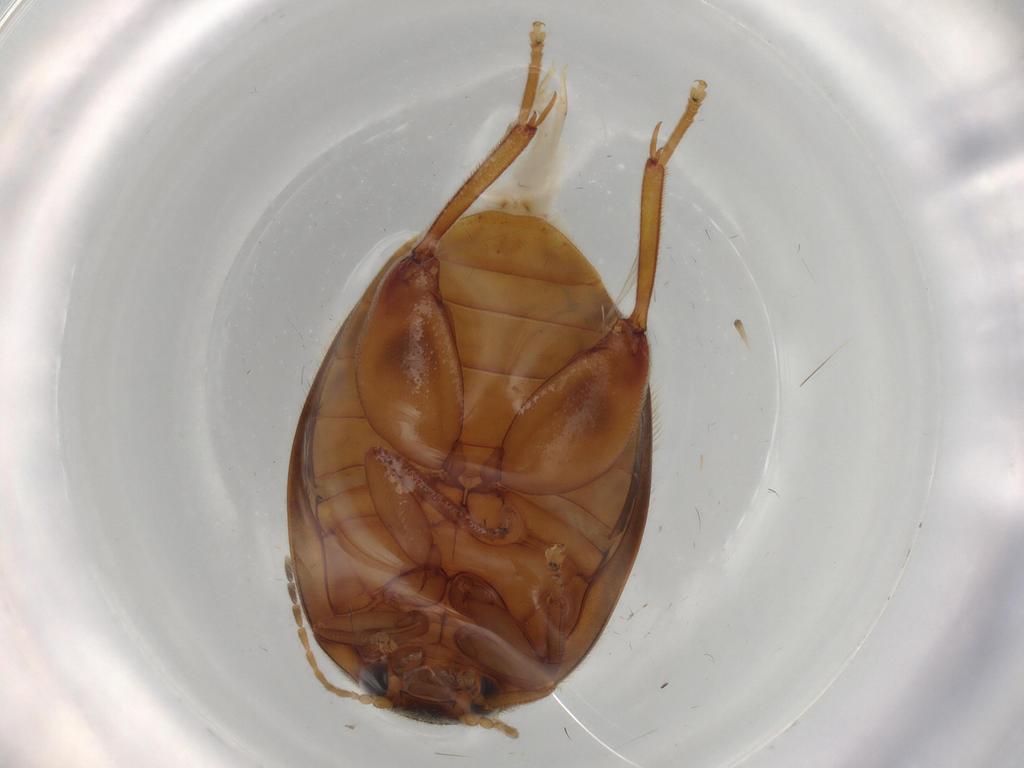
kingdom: Animalia
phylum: Arthropoda
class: Insecta
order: Coleoptera
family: Scirtidae
